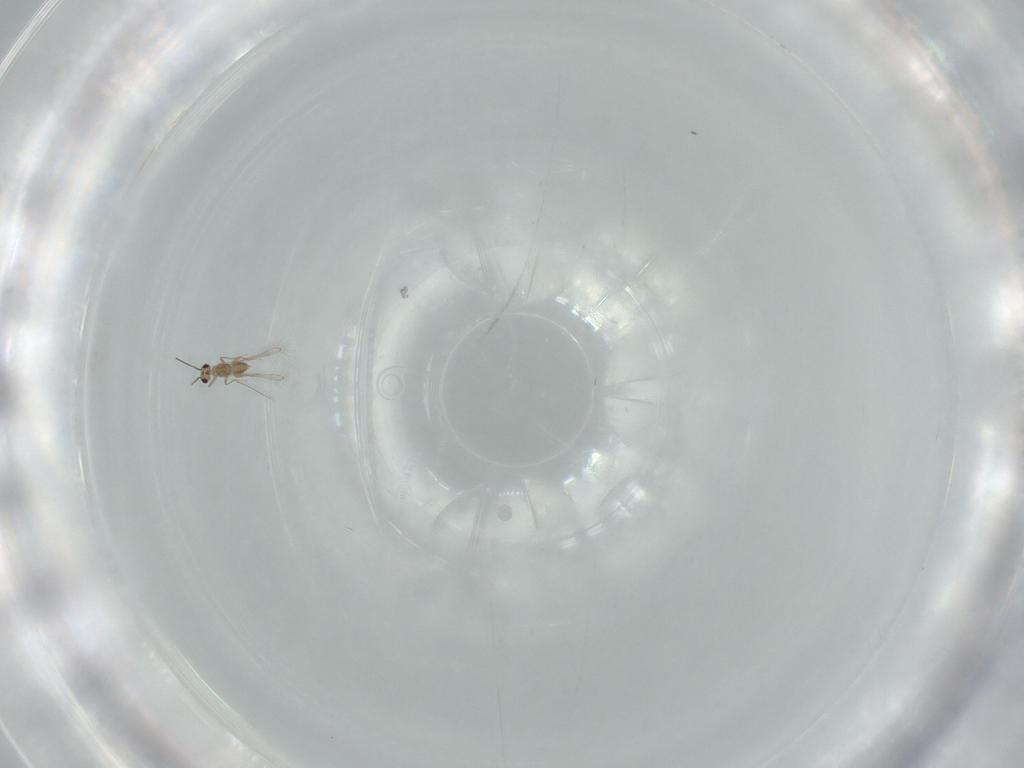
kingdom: Animalia
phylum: Arthropoda
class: Insecta
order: Hymenoptera
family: Mymaridae
